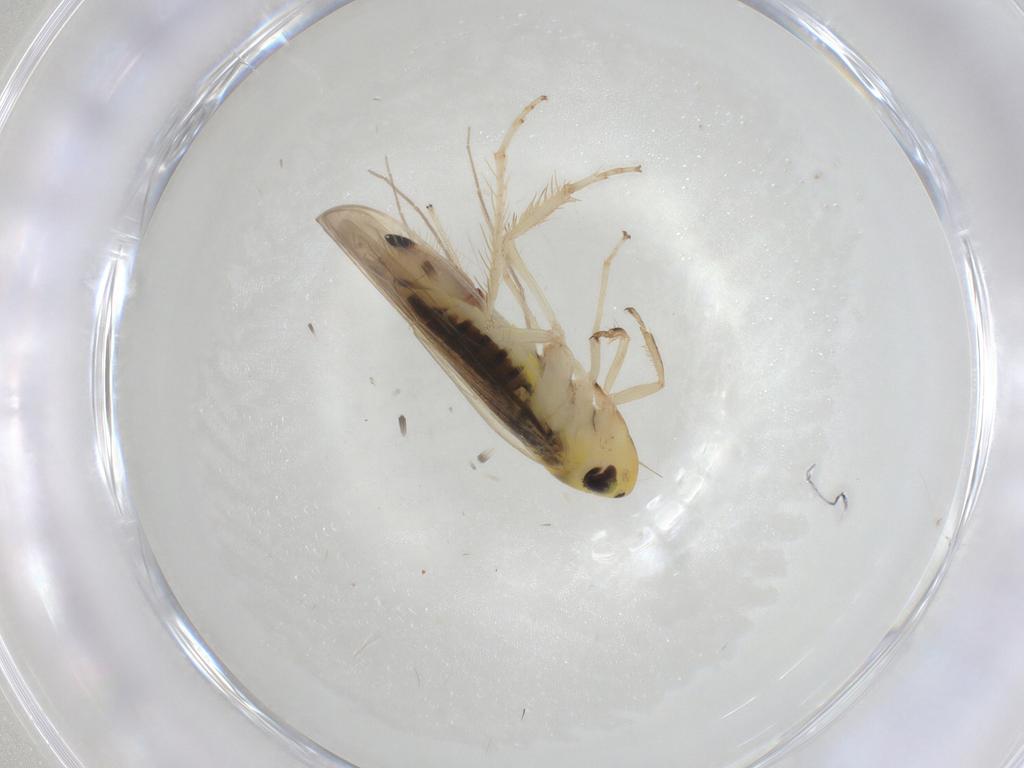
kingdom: Animalia
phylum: Arthropoda
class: Insecta
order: Hemiptera
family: Cicadellidae
